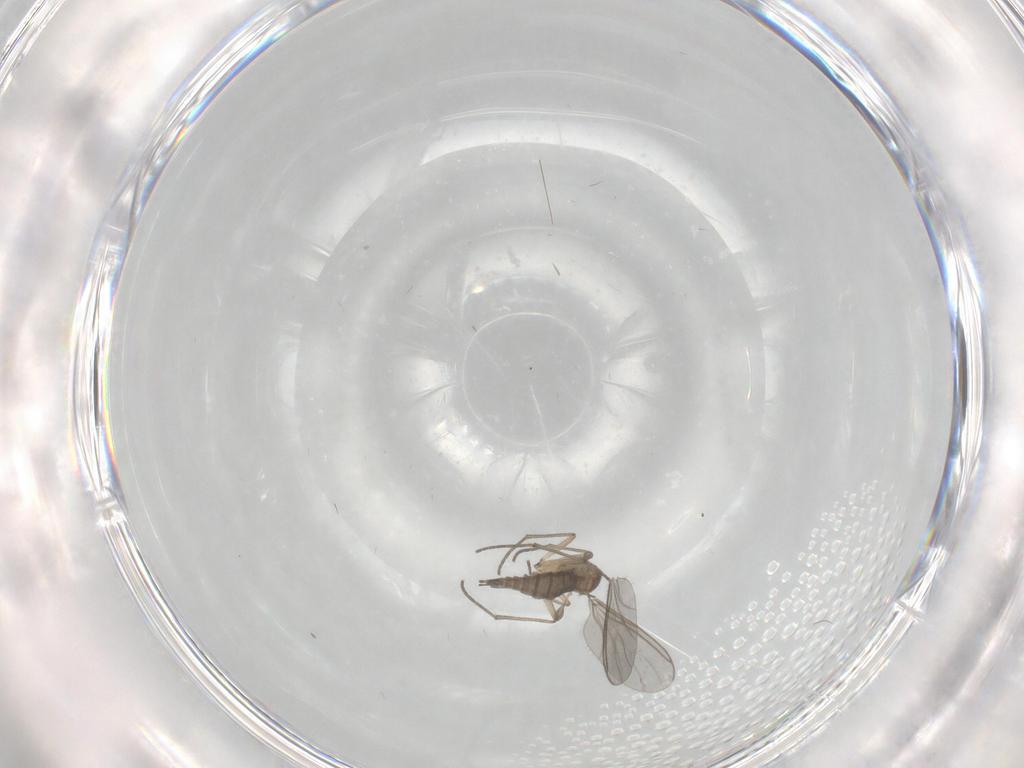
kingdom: Animalia
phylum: Arthropoda
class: Insecta
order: Diptera
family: Sciaridae
